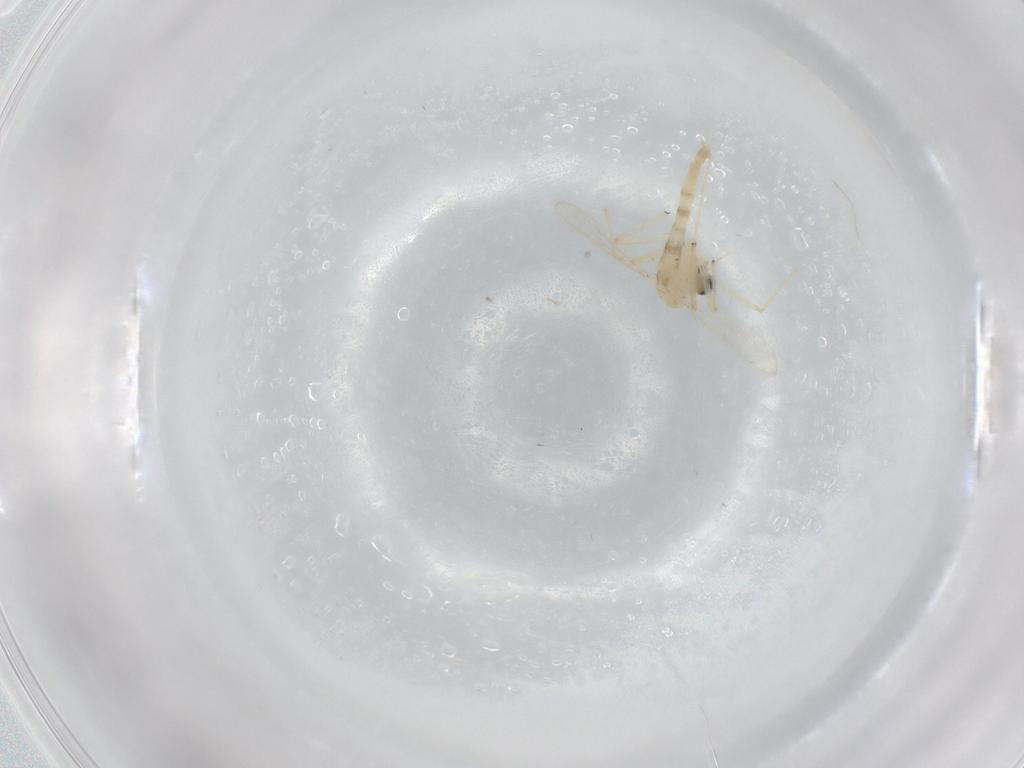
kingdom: Animalia
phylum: Arthropoda
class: Insecta
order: Diptera
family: Chironomidae
